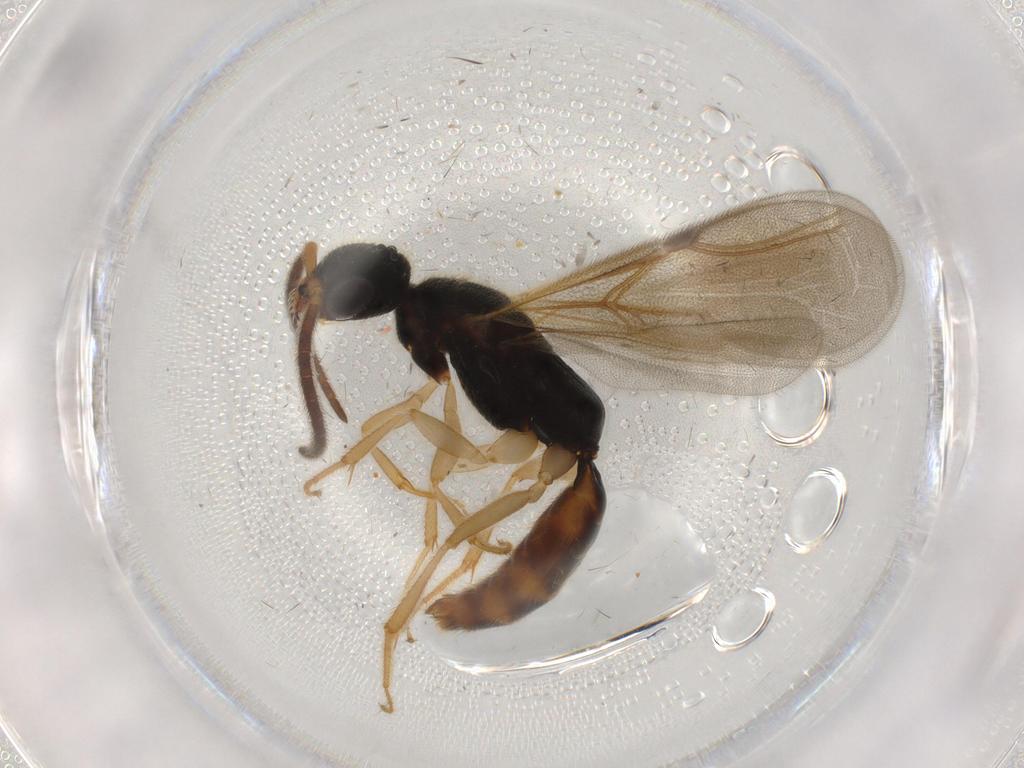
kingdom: Animalia
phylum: Arthropoda
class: Insecta
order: Hymenoptera
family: Bethylidae
